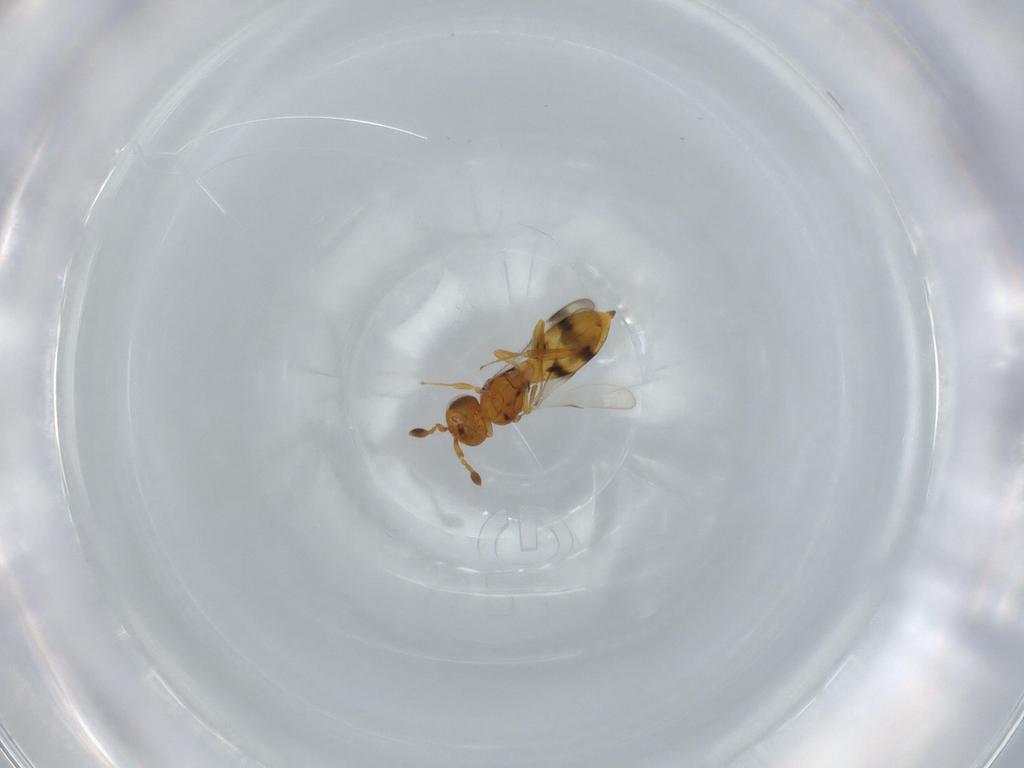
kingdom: Animalia
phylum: Arthropoda
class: Insecta
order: Hymenoptera
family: Scelionidae
